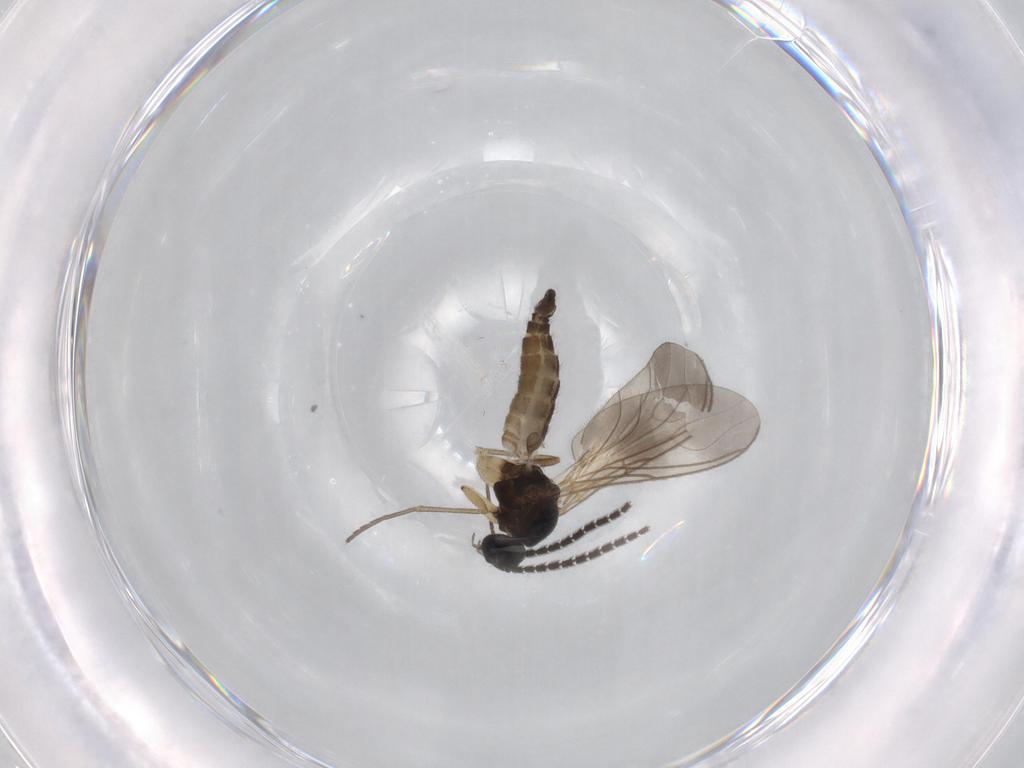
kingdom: Animalia
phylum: Arthropoda
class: Insecta
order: Diptera
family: Sciaridae
